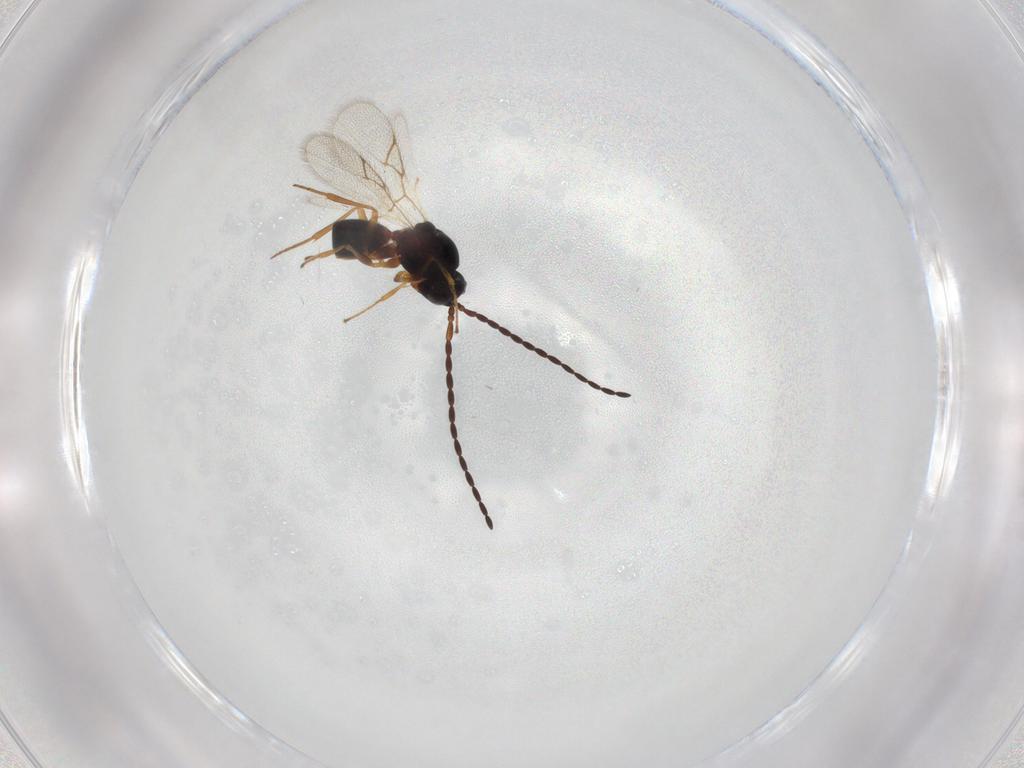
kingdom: Animalia
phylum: Arthropoda
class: Insecta
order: Hymenoptera
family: Figitidae
